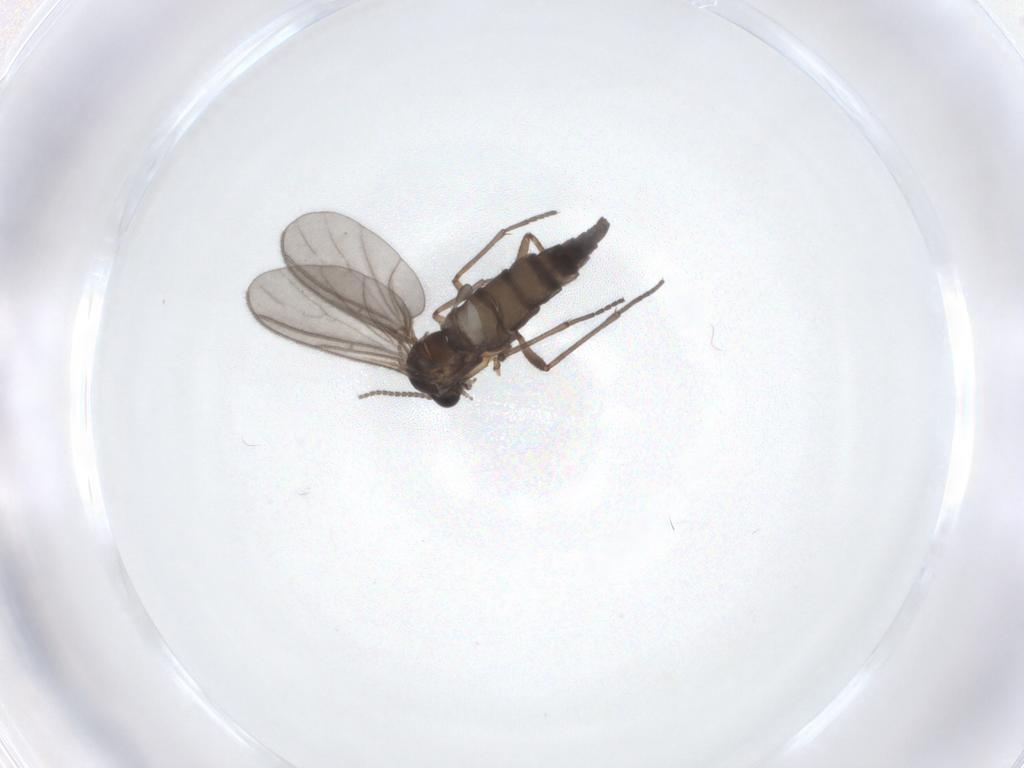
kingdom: Animalia
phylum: Arthropoda
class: Insecta
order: Diptera
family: Sciaridae
